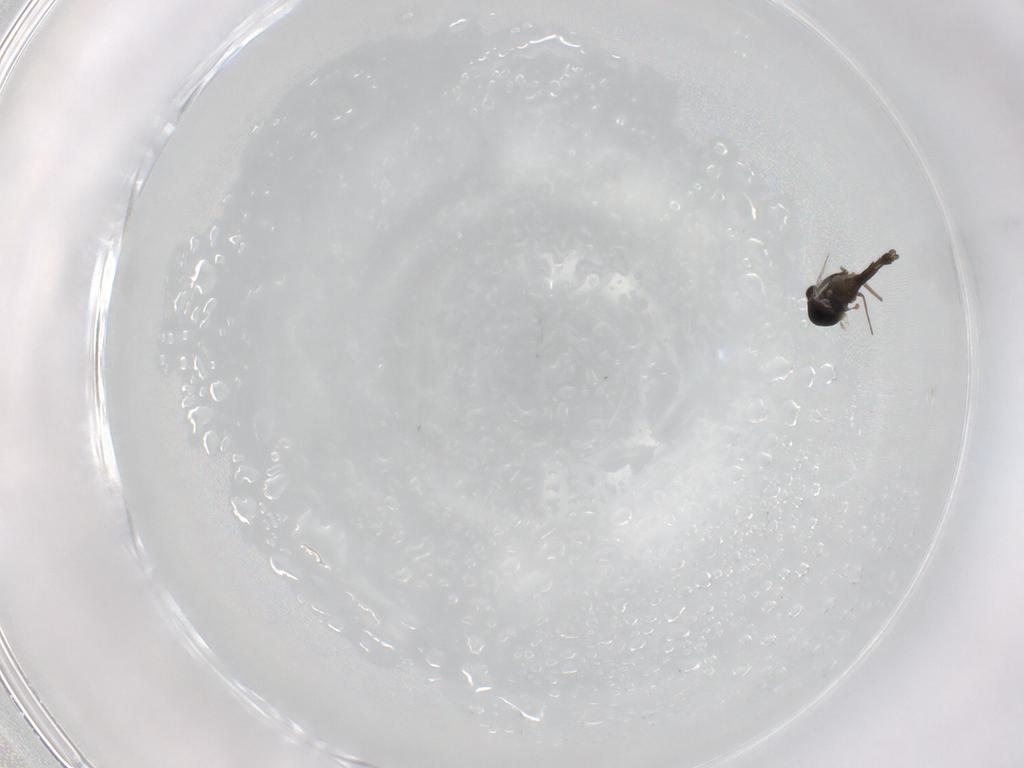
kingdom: Animalia
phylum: Arthropoda
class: Insecta
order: Diptera
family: Chironomidae
